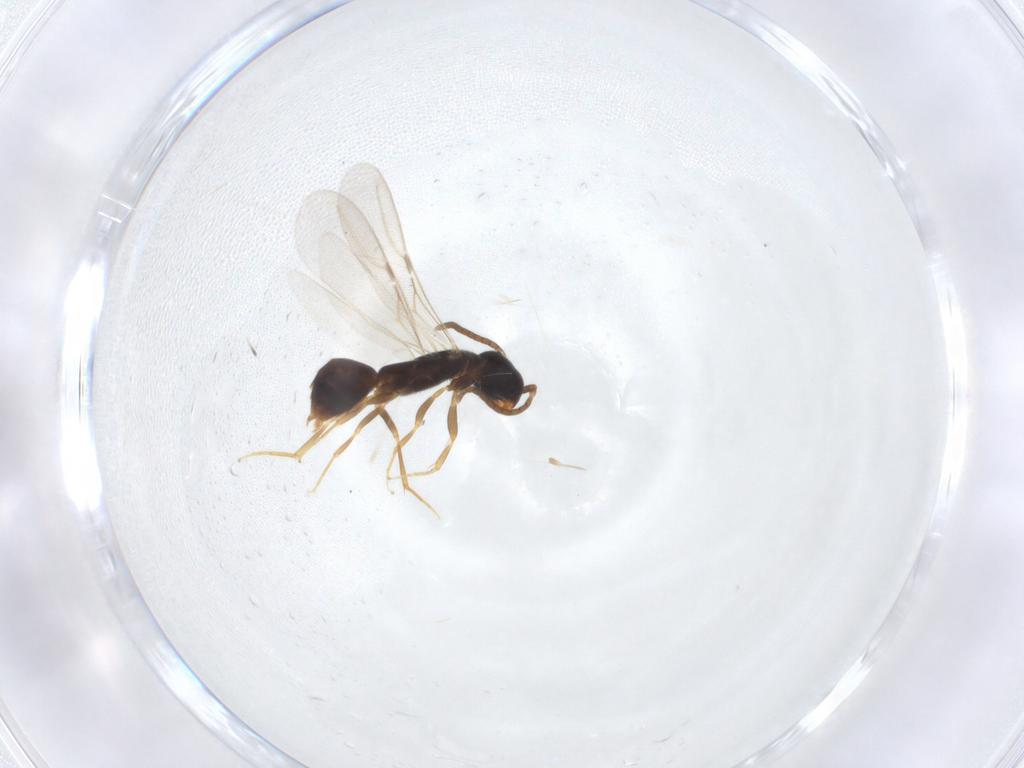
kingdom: Animalia
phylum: Arthropoda
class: Insecta
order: Hymenoptera
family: Bethylidae
